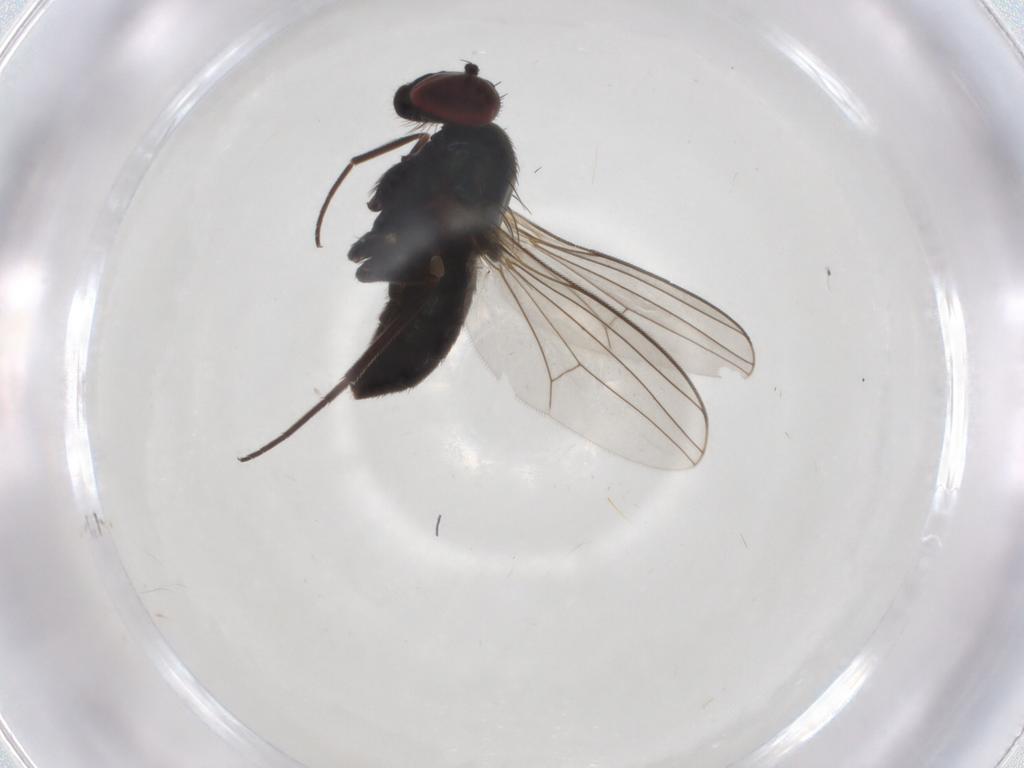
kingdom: Animalia
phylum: Arthropoda
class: Insecta
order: Diptera
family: Dolichopodidae
